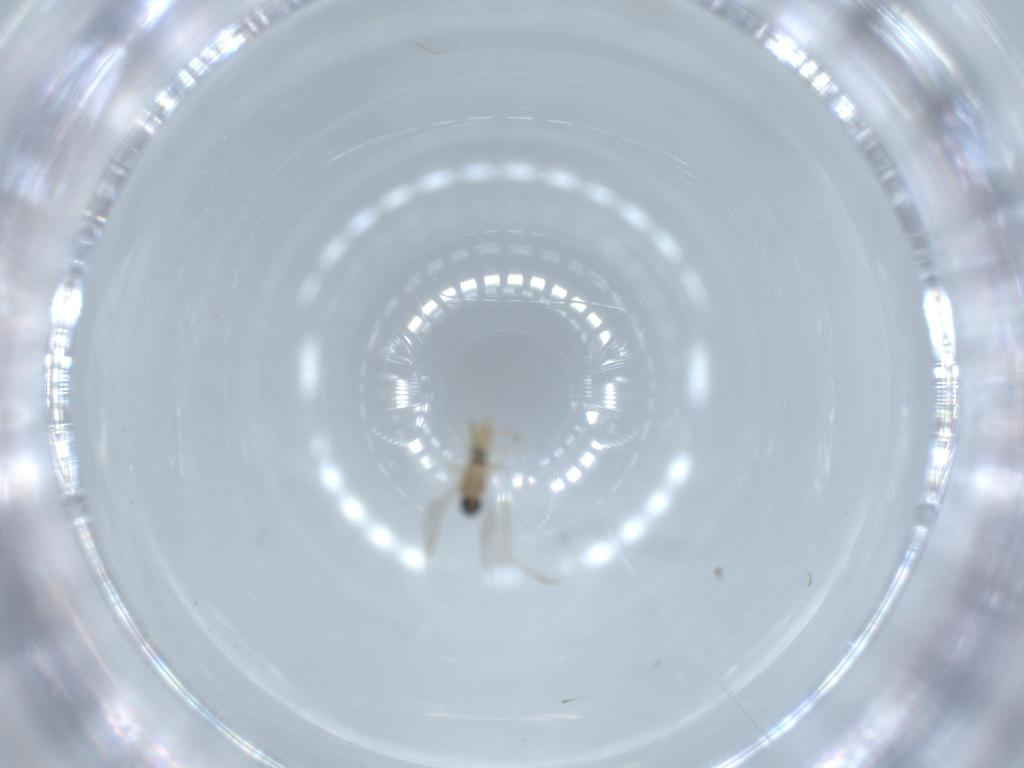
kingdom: Animalia
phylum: Arthropoda
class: Insecta
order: Diptera
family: Cecidomyiidae
